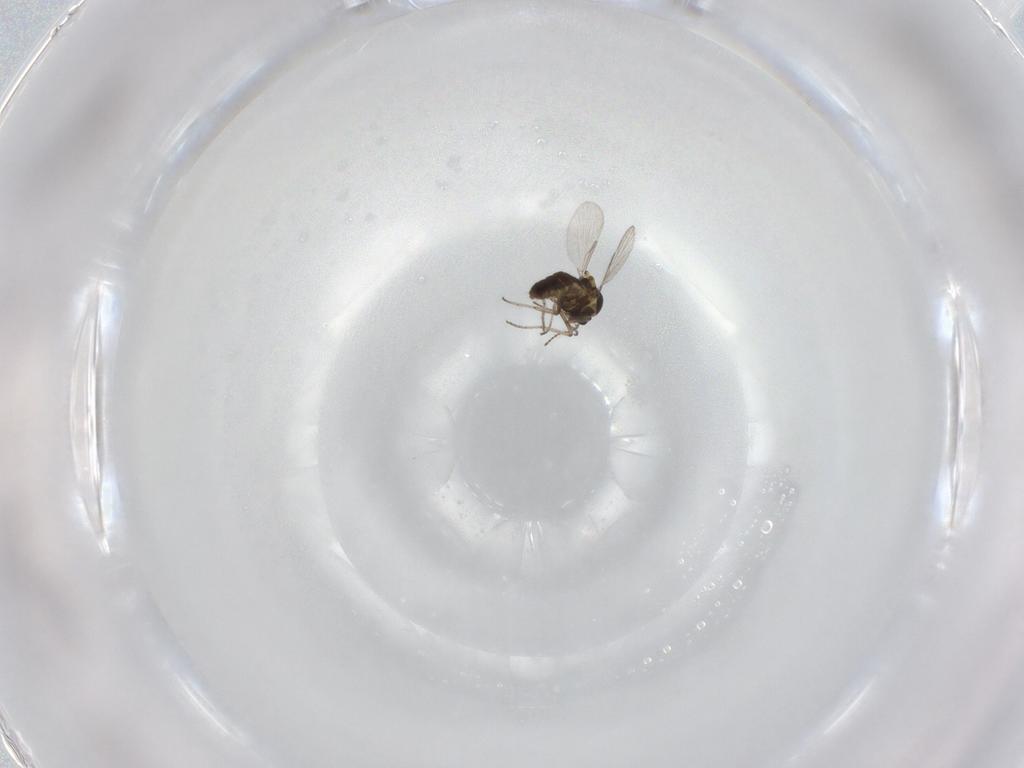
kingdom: Animalia
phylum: Arthropoda
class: Insecta
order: Diptera
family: Ceratopogonidae
